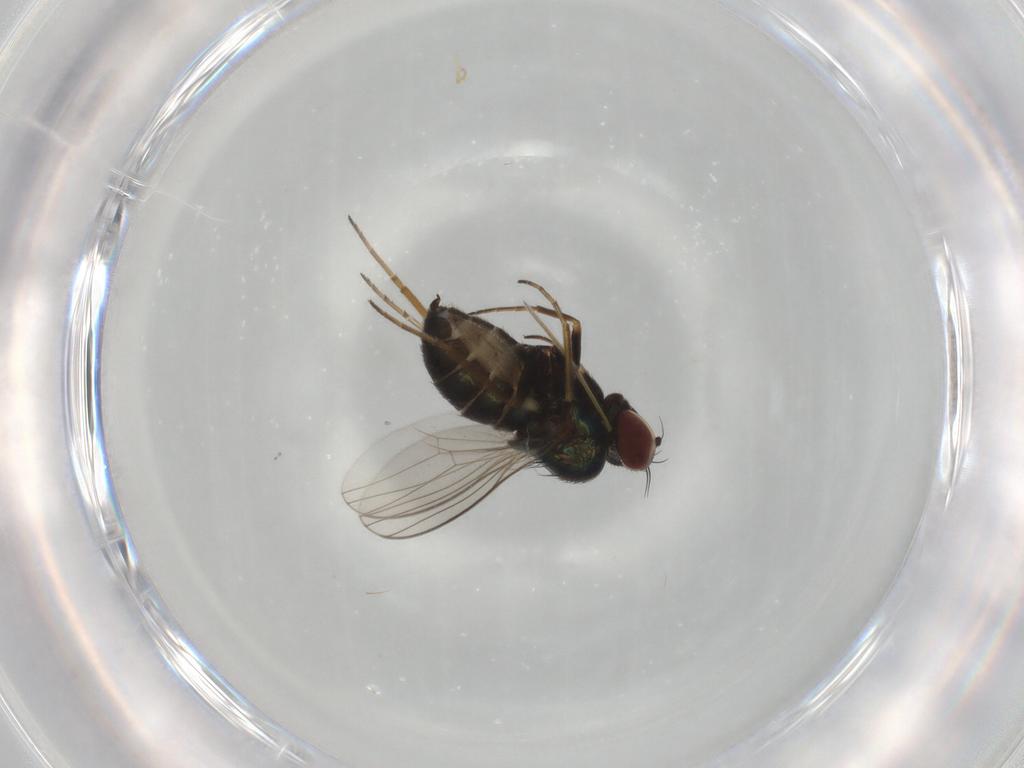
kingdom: Animalia
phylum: Arthropoda
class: Insecta
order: Diptera
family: Dolichopodidae
